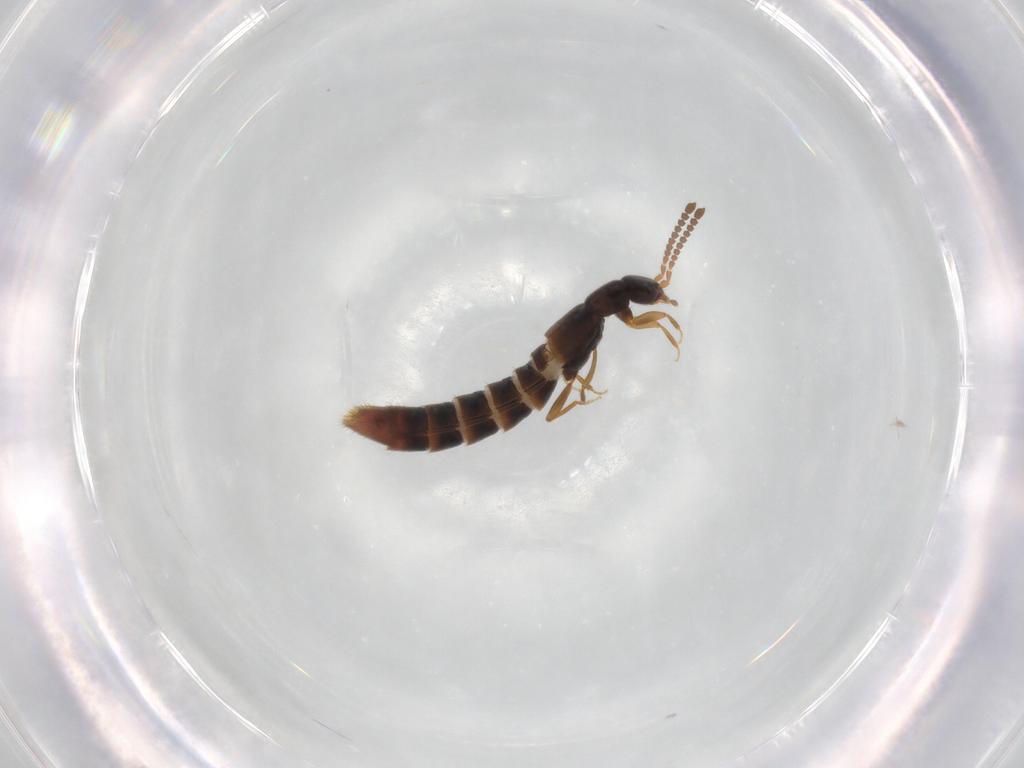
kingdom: Animalia
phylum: Arthropoda
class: Insecta
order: Coleoptera
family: Staphylinidae
